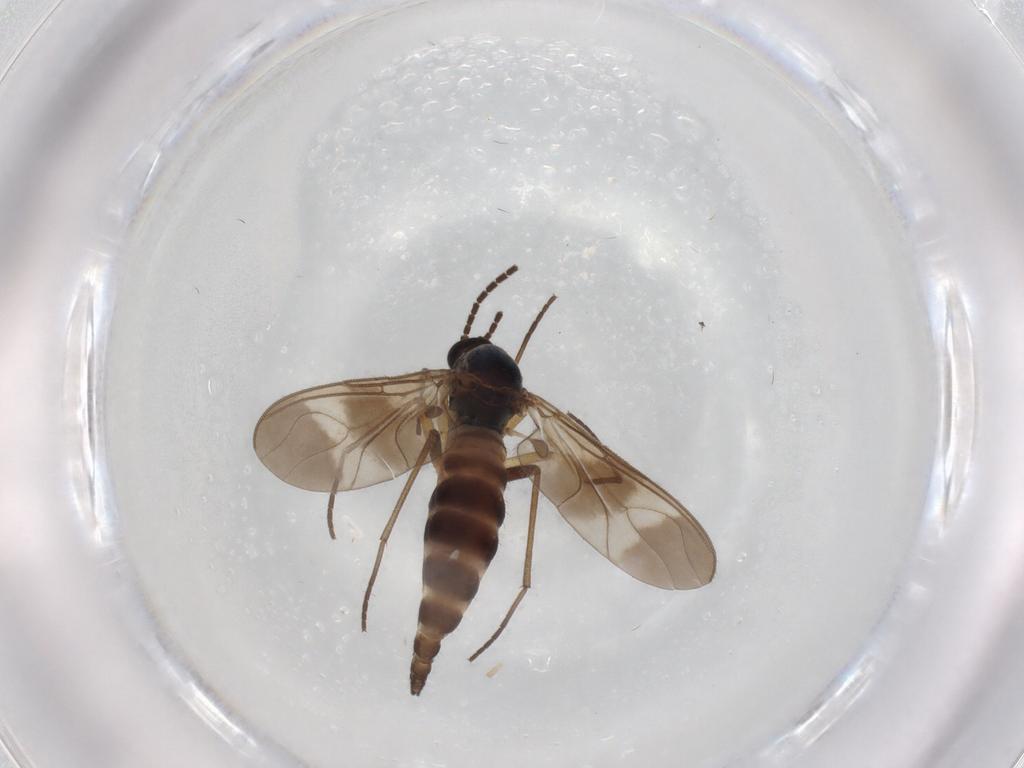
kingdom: Animalia
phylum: Arthropoda
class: Insecta
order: Diptera
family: Sciaridae
